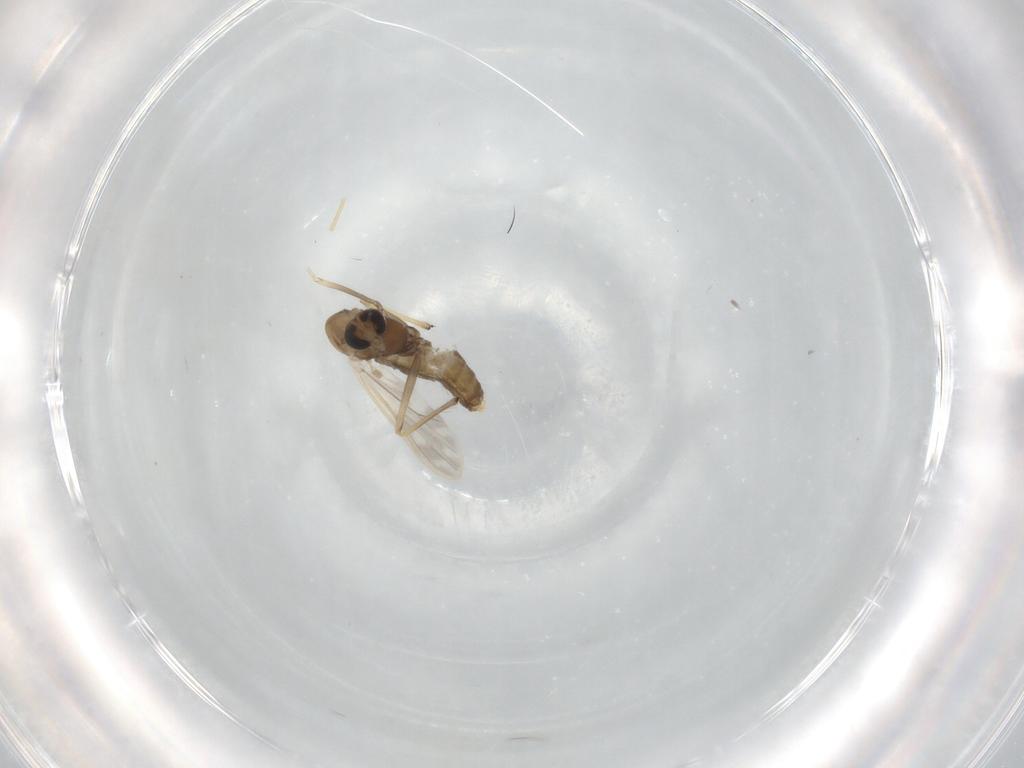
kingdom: Animalia
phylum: Arthropoda
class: Insecta
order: Diptera
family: Chironomidae
